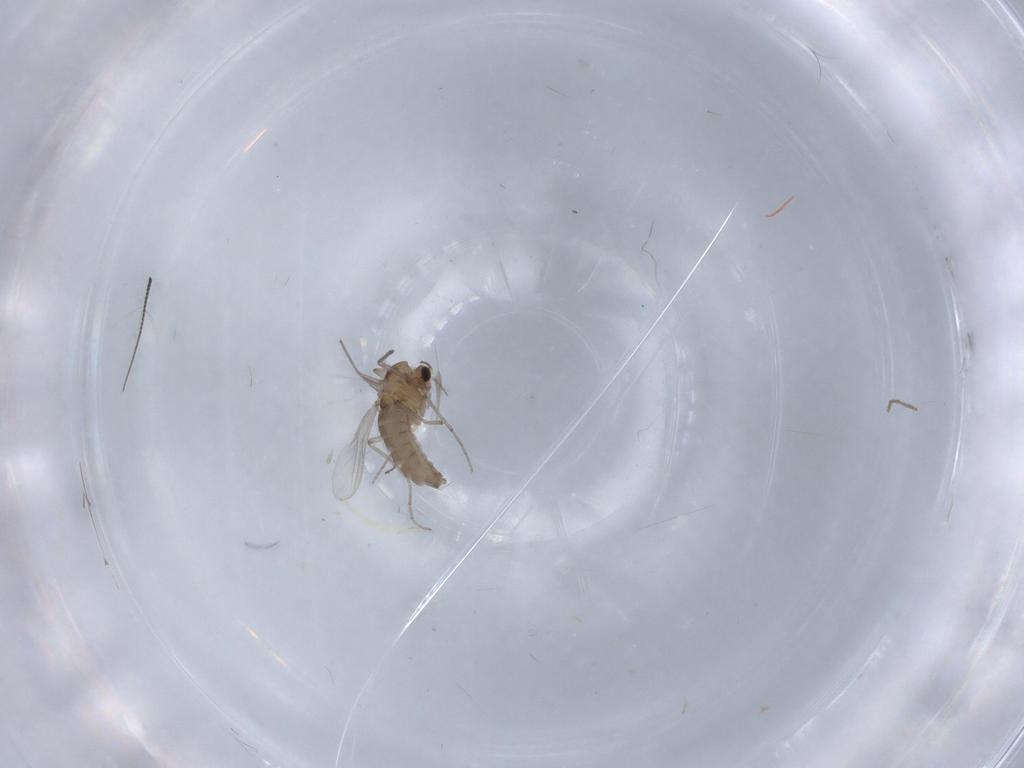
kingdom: Animalia
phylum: Arthropoda
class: Insecta
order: Diptera
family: Chironomidae
